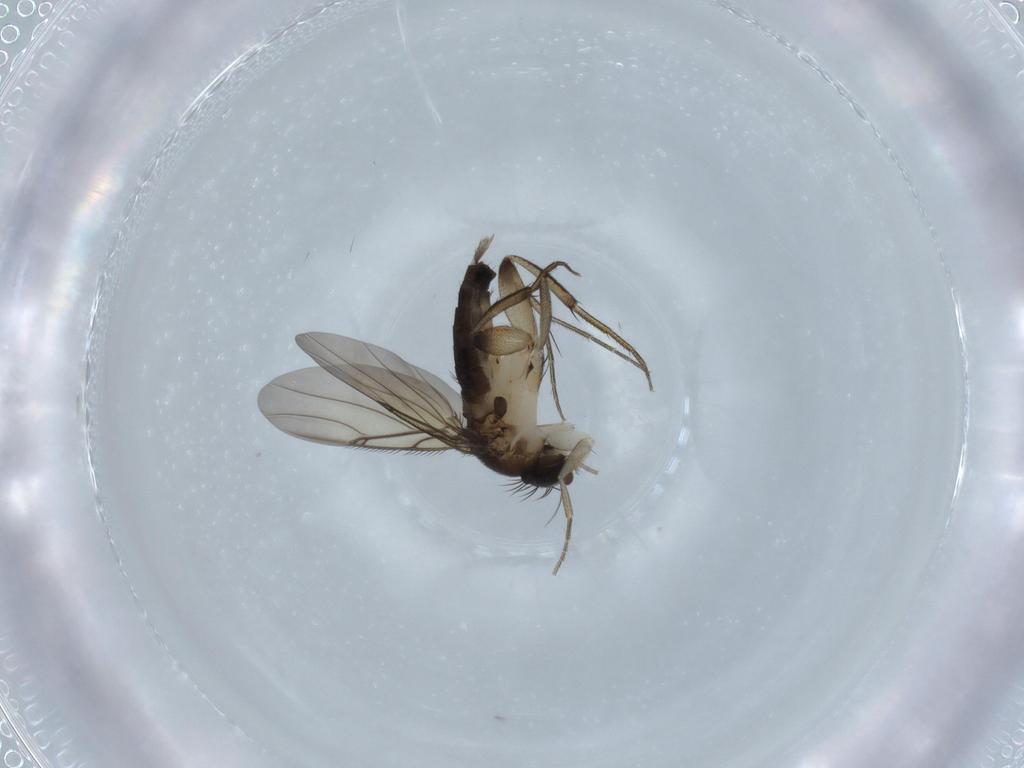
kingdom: Animalia
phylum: Arthropoda
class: Insecta
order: Diptera
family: Phoridae
